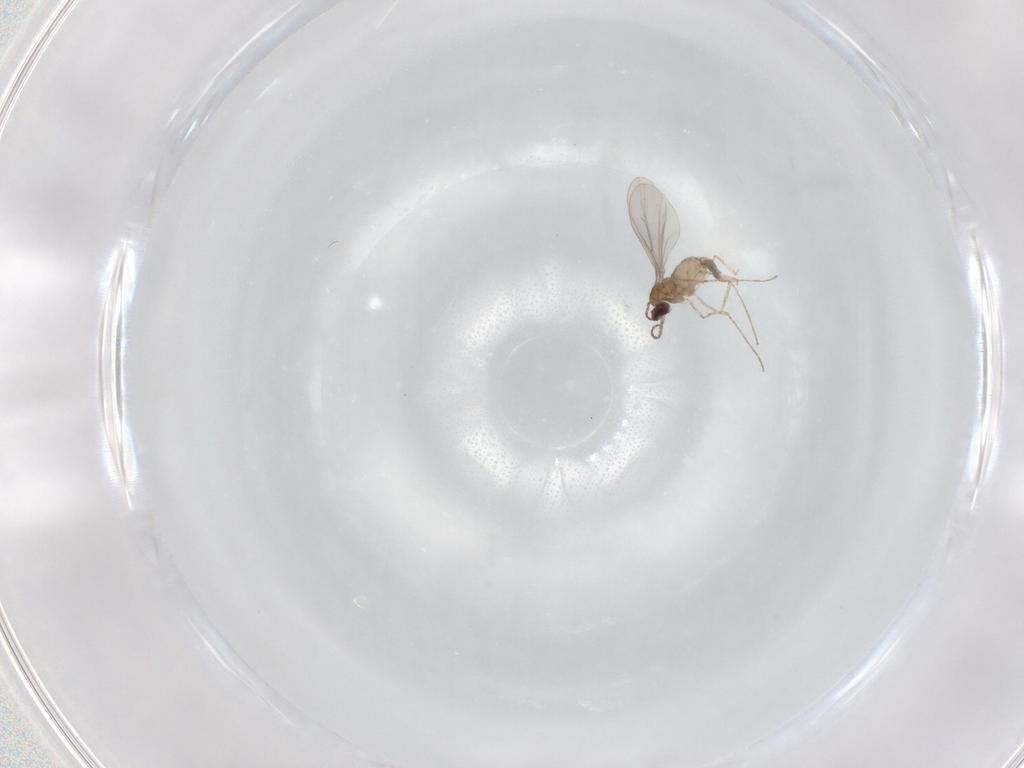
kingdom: Animalia
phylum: Arthropoda
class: Insecta
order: Diptera
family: Cecidomyiidae
